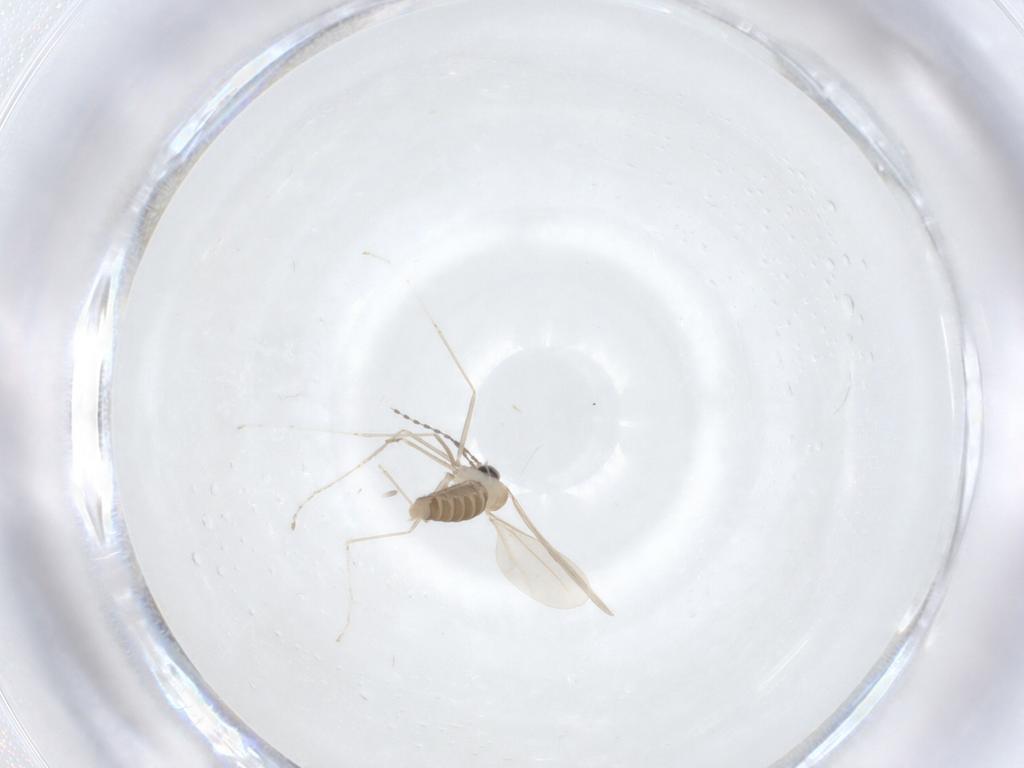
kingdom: Animalia
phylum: Arthropoda
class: Insecta
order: Diptera
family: Cecidomyiidae
